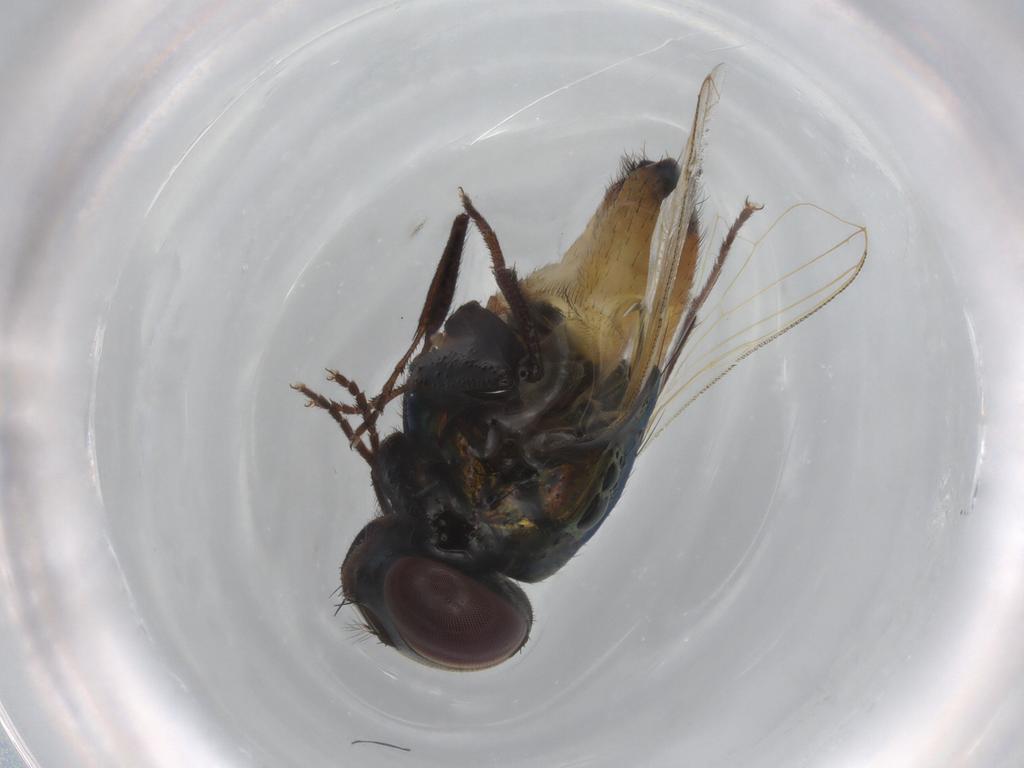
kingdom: Animalia
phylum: Arthropoda
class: Insecta
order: Diptera
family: Muscidae
